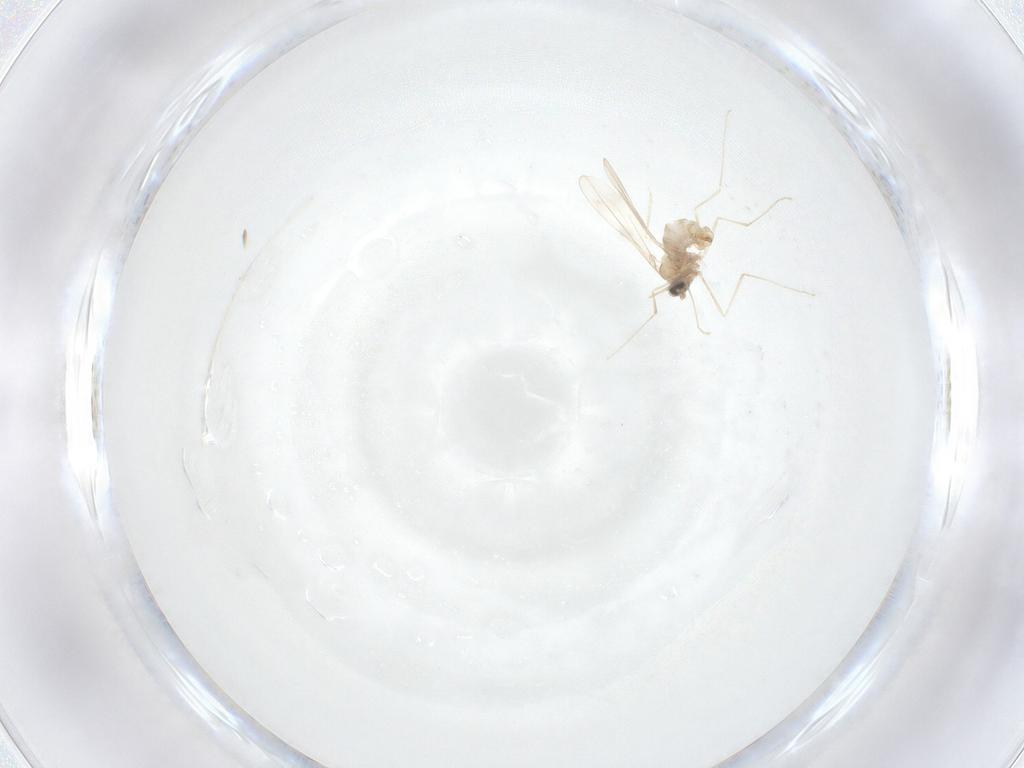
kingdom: Animalia
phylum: Arthropoda
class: Insecta
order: Diptera
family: Cecidomyiidae
